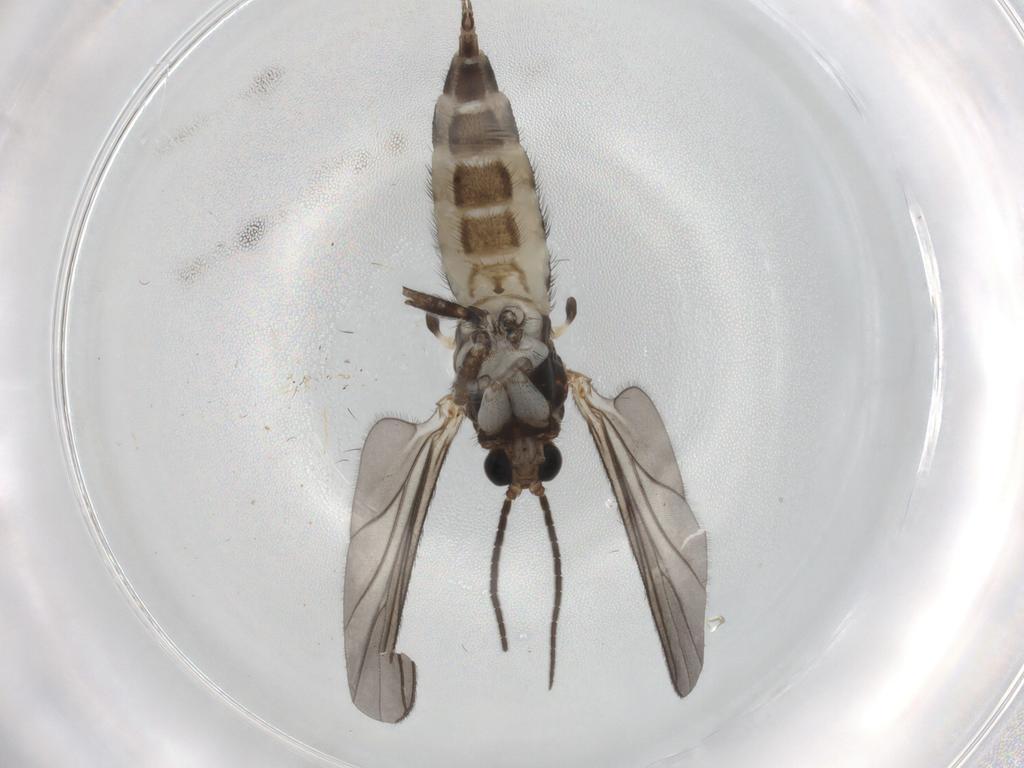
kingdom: Animalia
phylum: Arthropoda
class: Insecta
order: Diptera
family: Sciaridae
